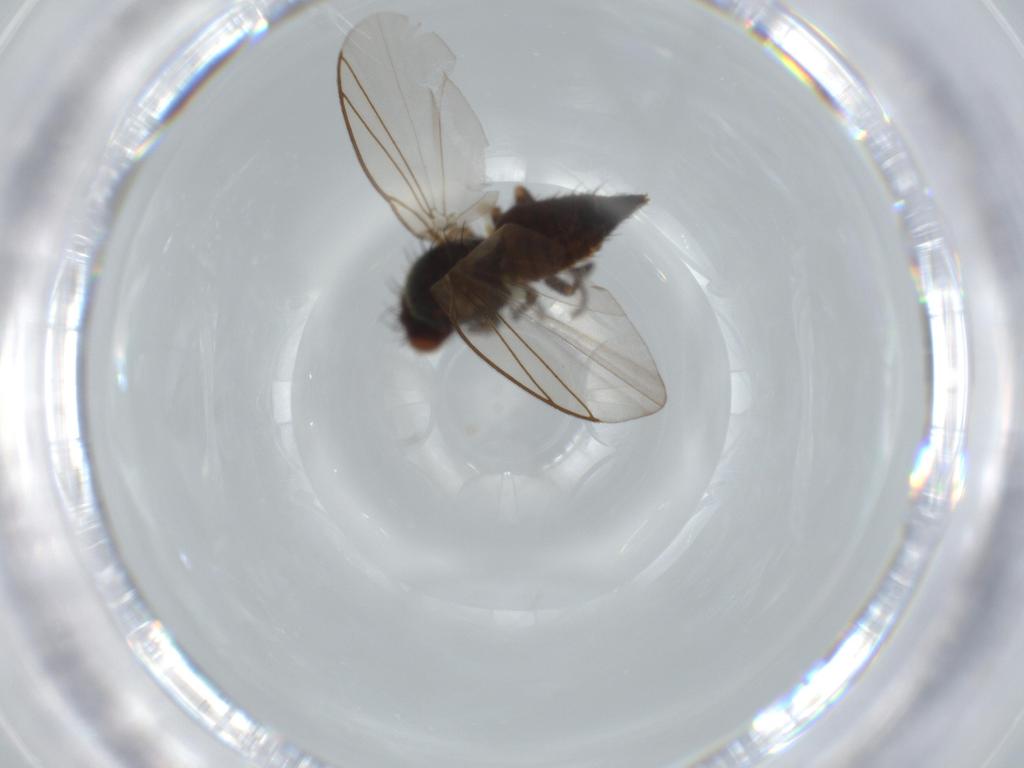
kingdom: Animalia
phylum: Arthropoda
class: Insecta
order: Diptera
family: Agromyzidae
